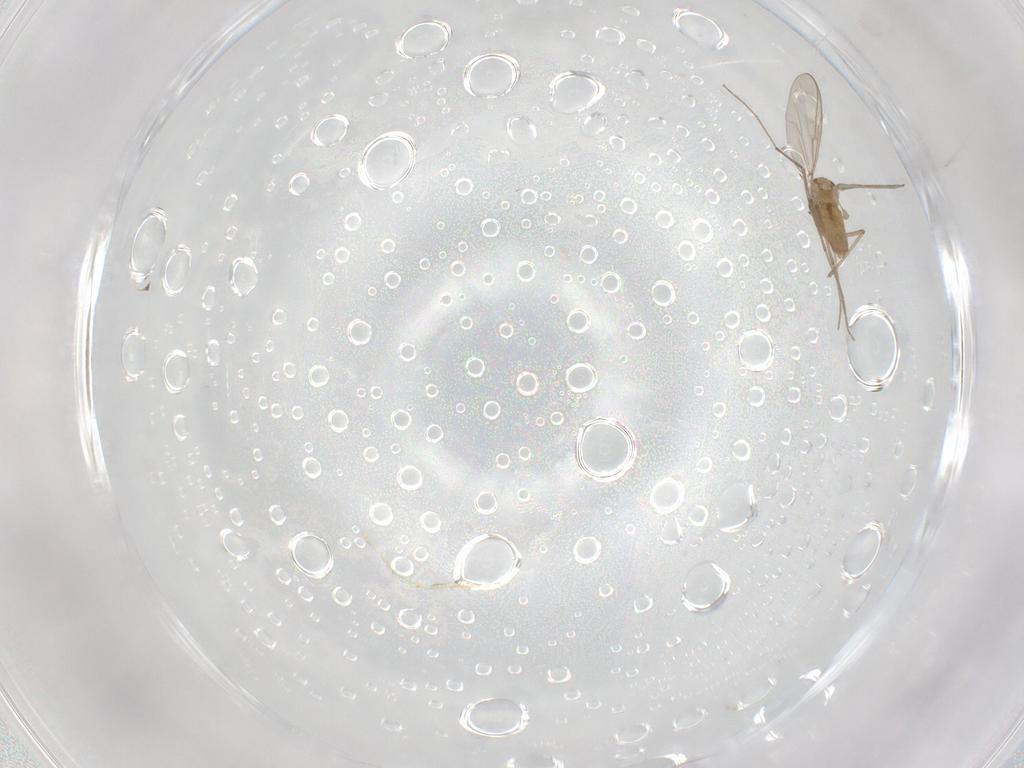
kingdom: Animalia
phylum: Arthropoda
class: Insecta
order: Diptera
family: Chironomidae
